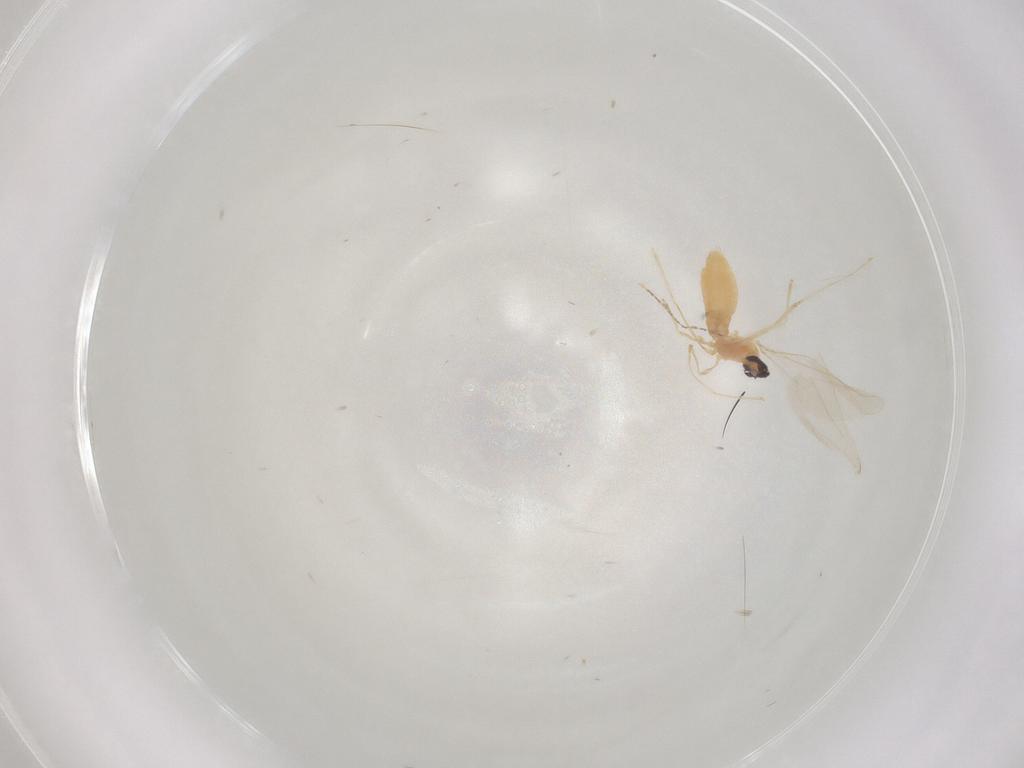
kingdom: Animalia
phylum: Arthropoda
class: Insecta
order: Diptera
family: Cecidomyiidae
